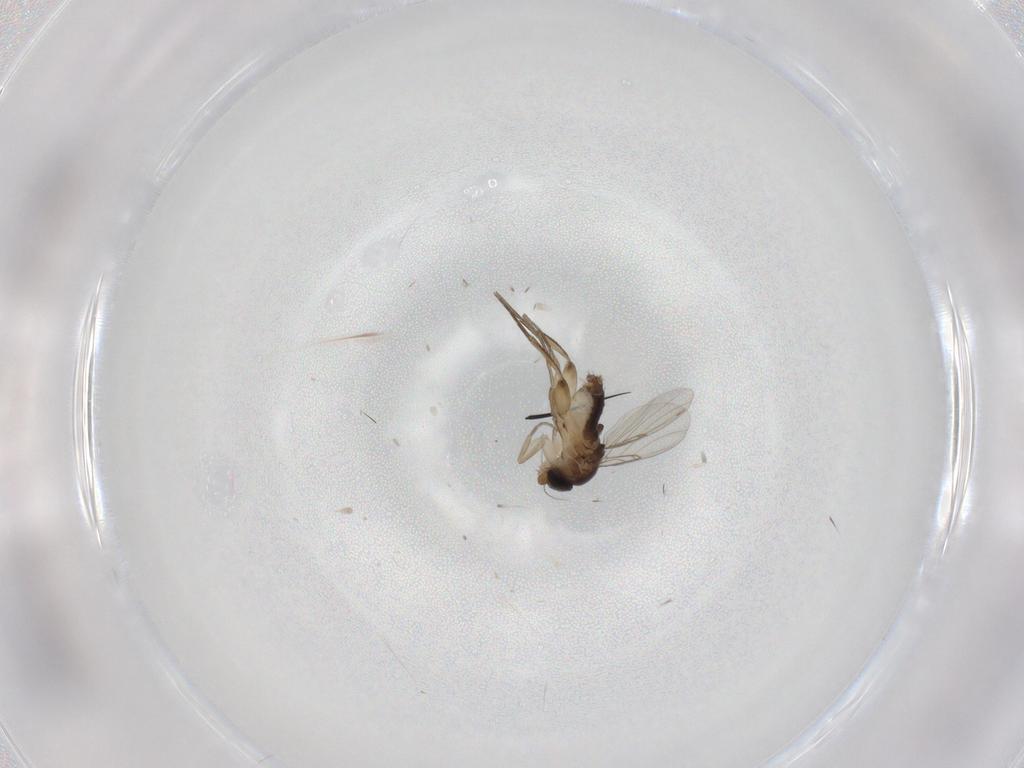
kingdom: Animalia
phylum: Arthropoda
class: Insecta
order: Diptera
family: Phoridae
